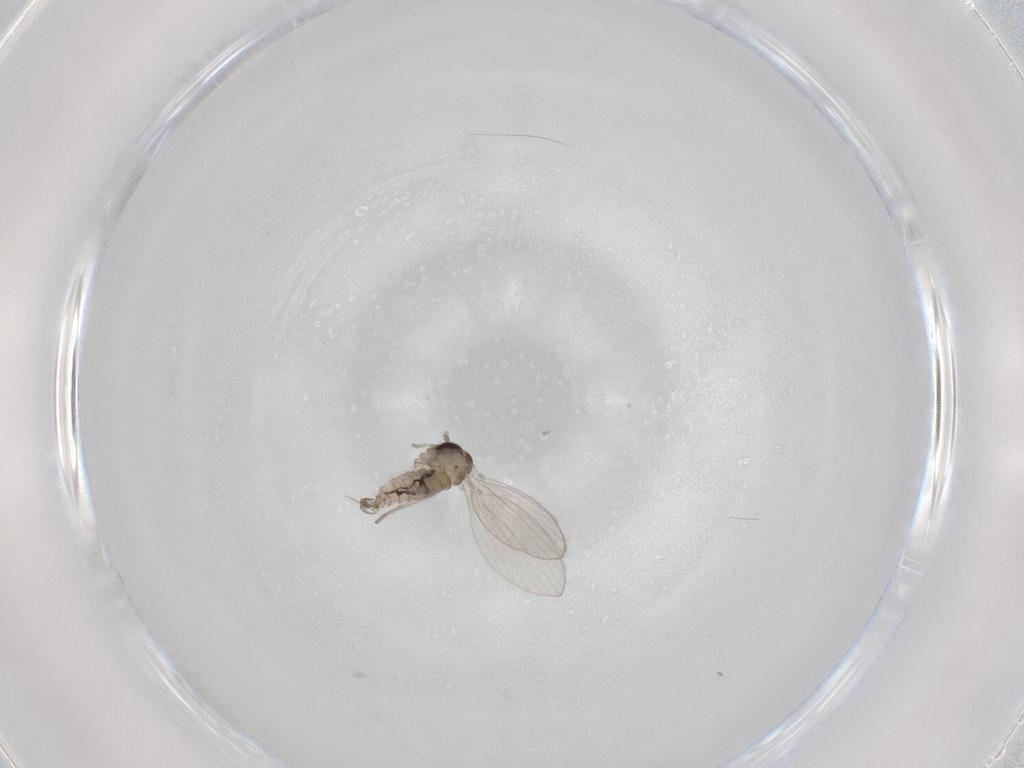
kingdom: Animalia
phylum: Arthropoda
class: Insecta
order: Diptera
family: Psychodidae
